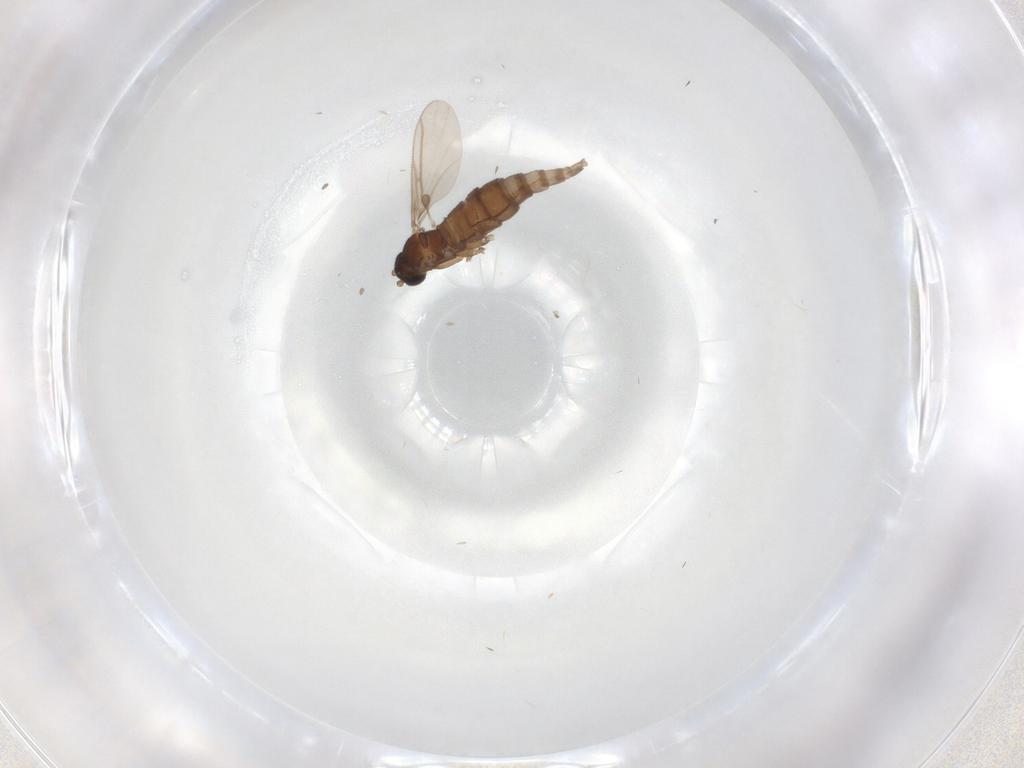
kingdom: Animalia
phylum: Arthropoda
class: Insecta
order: Diptera
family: Sciaridae
